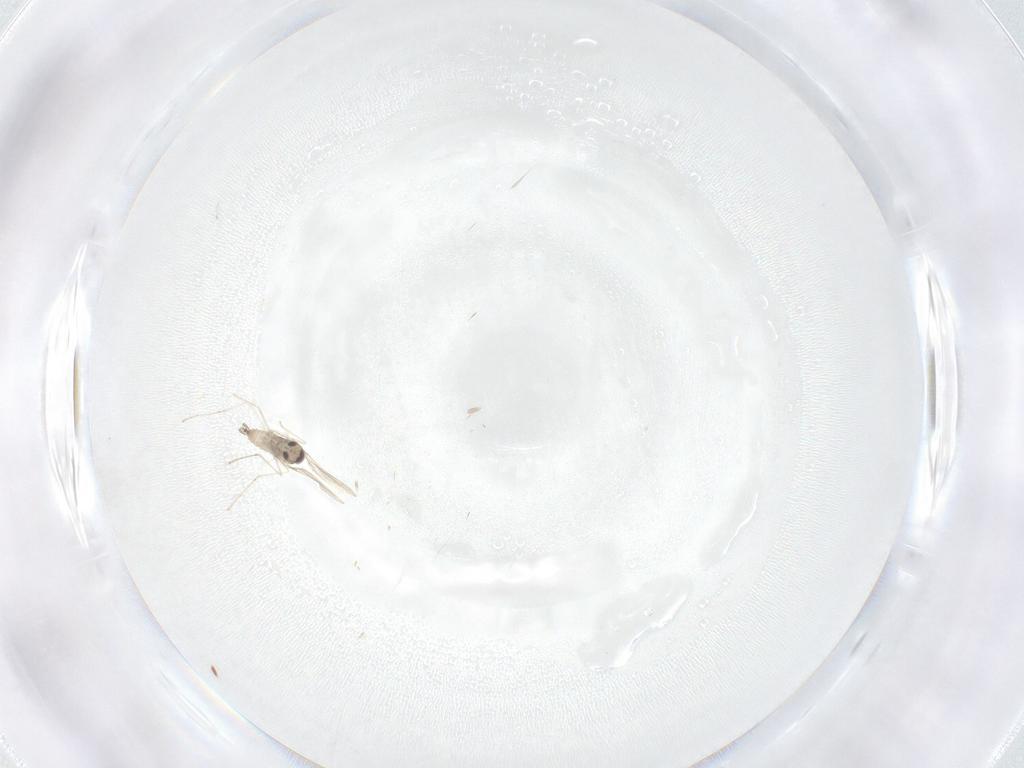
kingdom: Animalia
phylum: Arthropoda
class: Insecta
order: Diptera
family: Cecidomyiidae
